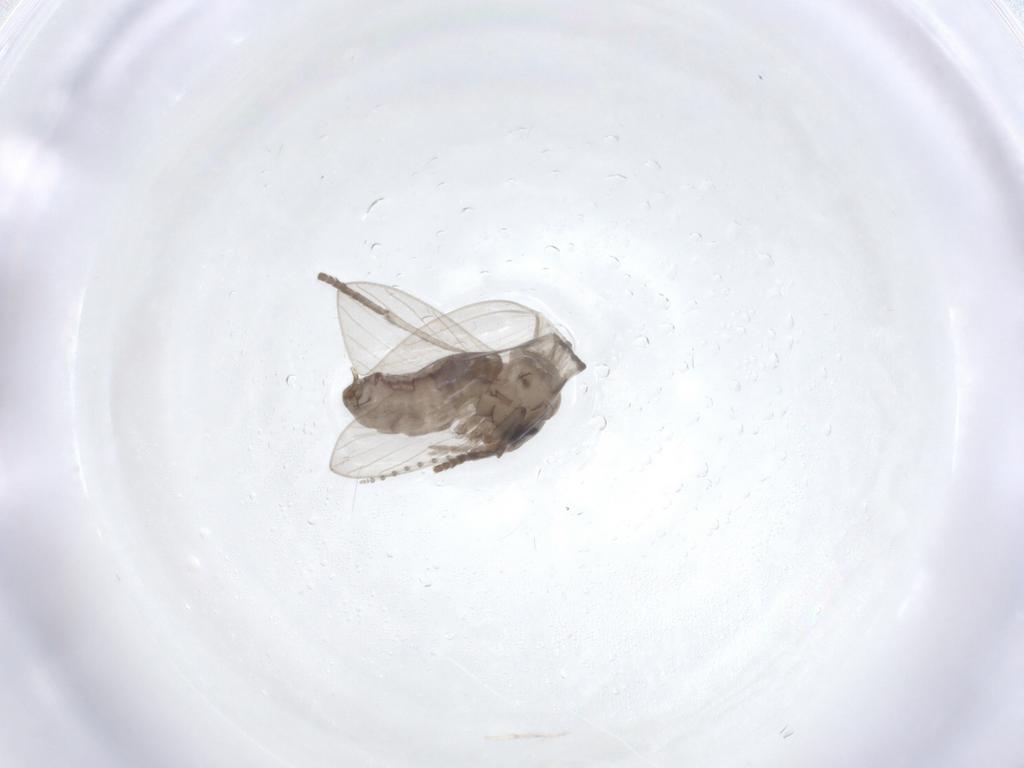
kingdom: Animalia
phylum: Arthropoda
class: Insecta
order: Diptera
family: Psychodidae
